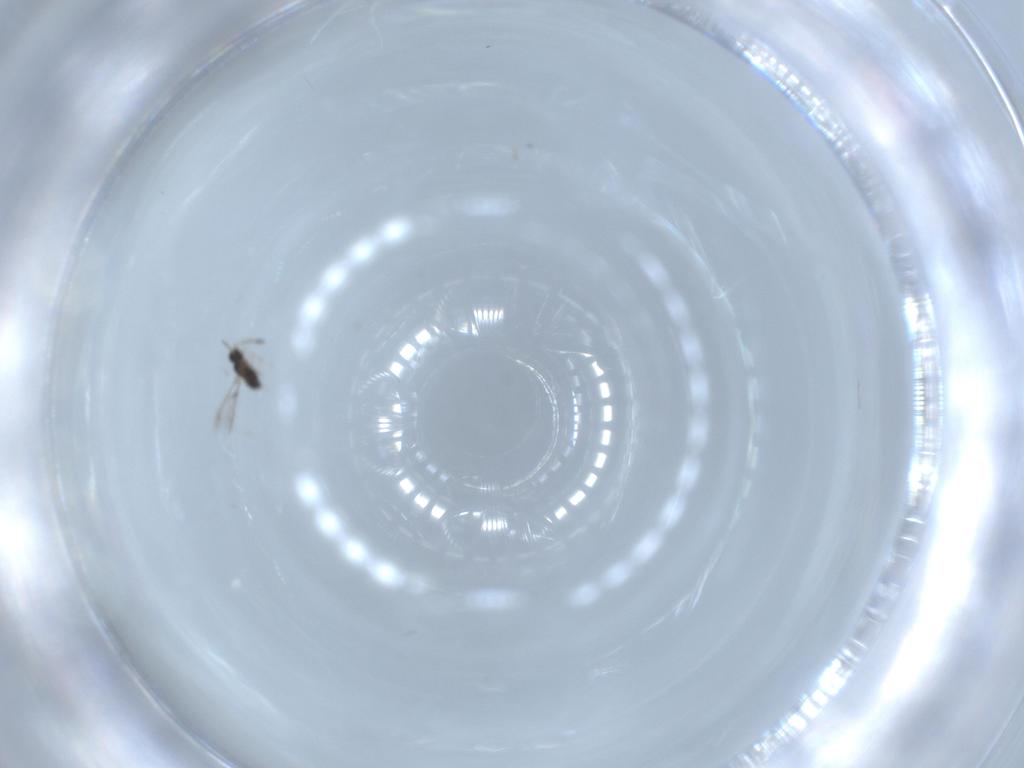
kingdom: Animalia
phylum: Arthropoda
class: Insecta
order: Hymenoptera
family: Mymaridae
